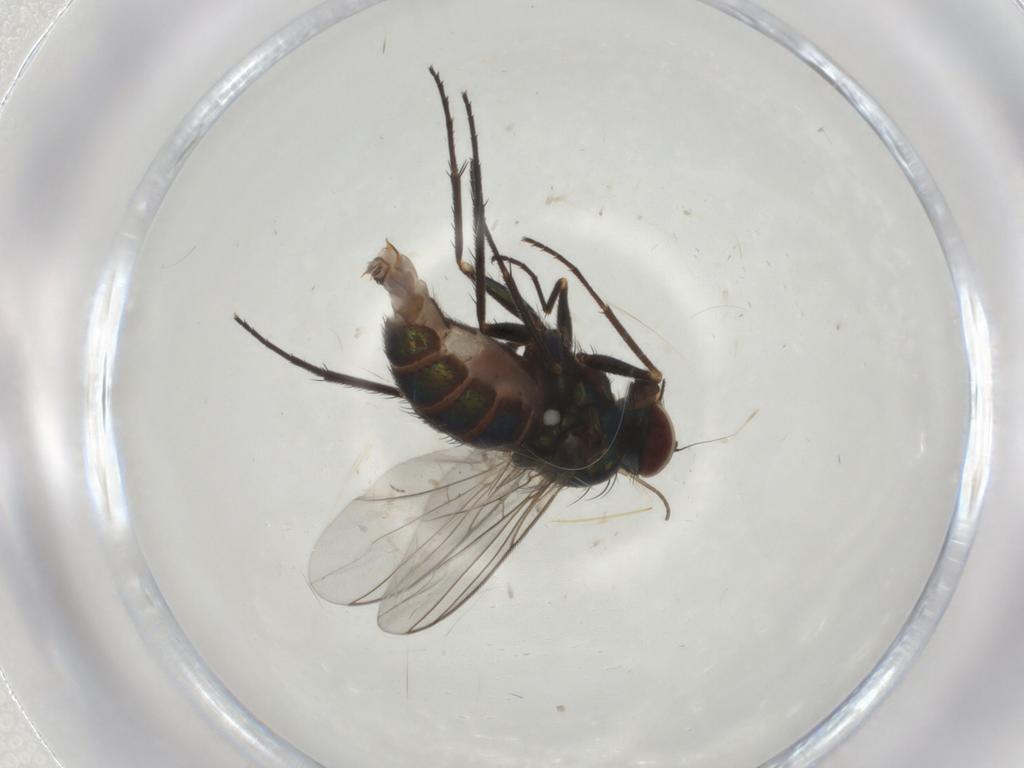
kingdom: Animalia
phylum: Arthropoda
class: Insecta
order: Diptera
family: Dolichopodidae
